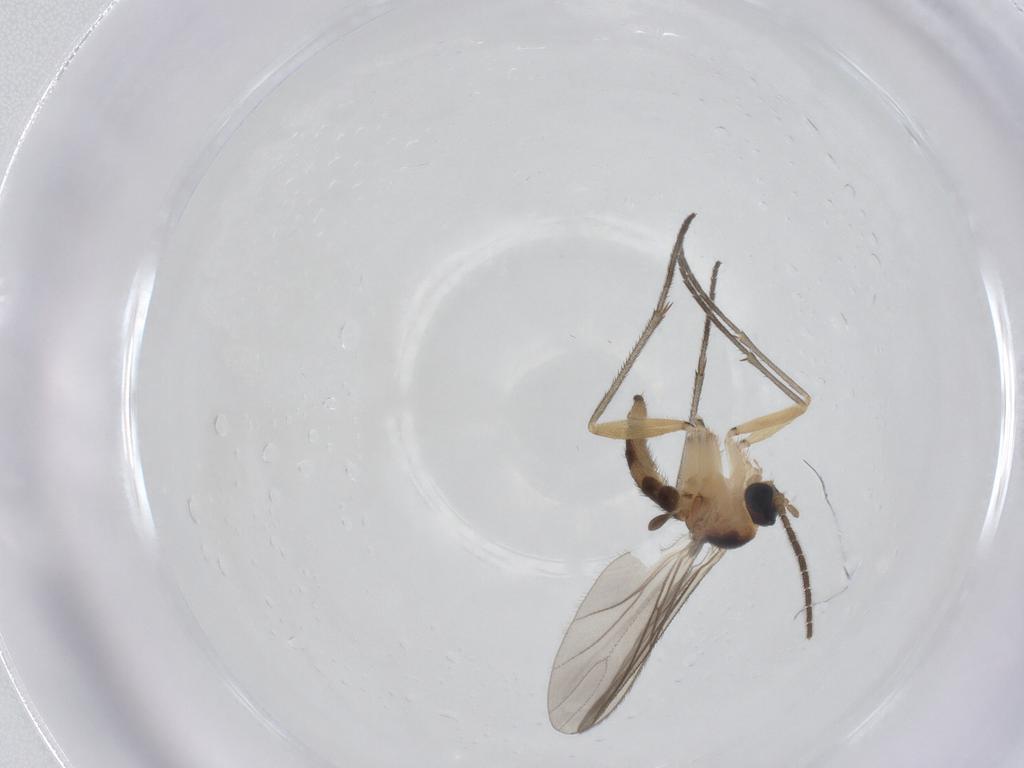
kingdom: Animalia
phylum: Arthropoda
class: Insecta
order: Diptera
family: Sciaridae
